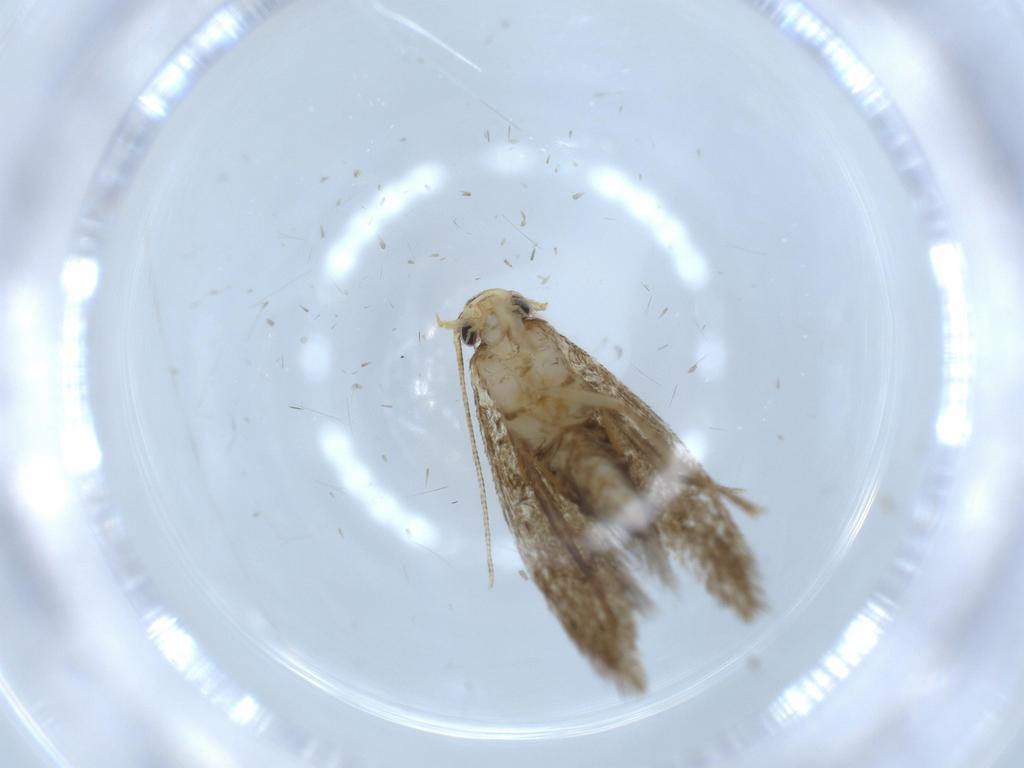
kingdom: Animalia
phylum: Arthropoda
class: Insecta
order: Lepidoptera
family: Tineidae
